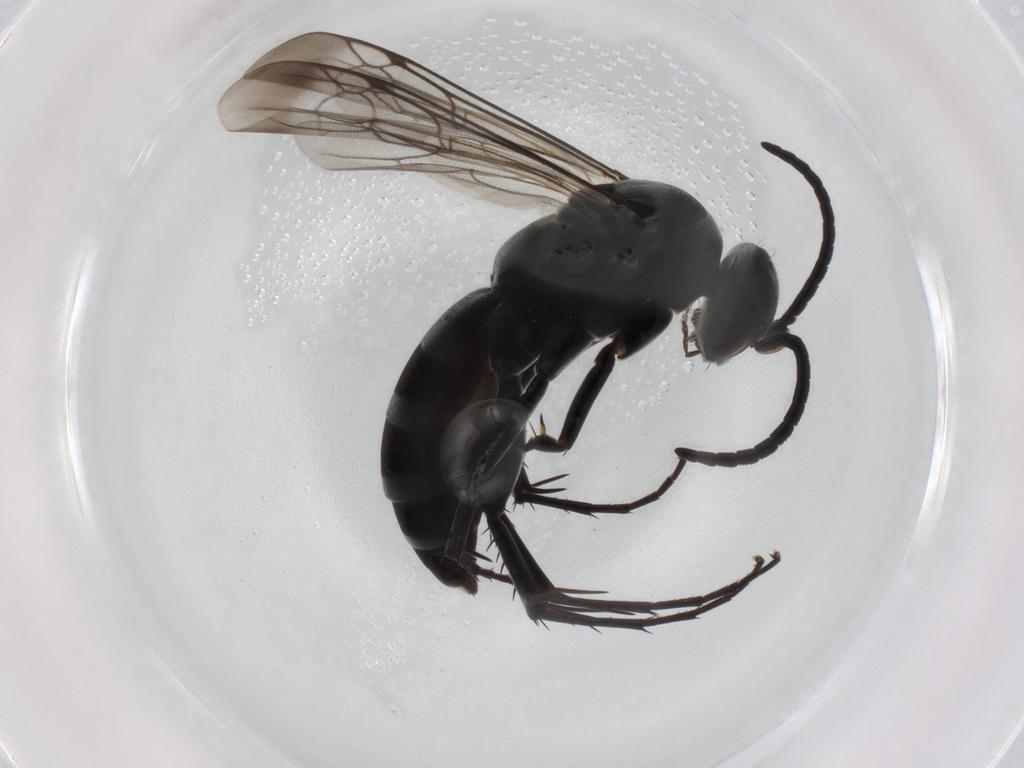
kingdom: Animalia
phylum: Arthropoda
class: Insecta
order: Hymenoptera
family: Pompilidae
